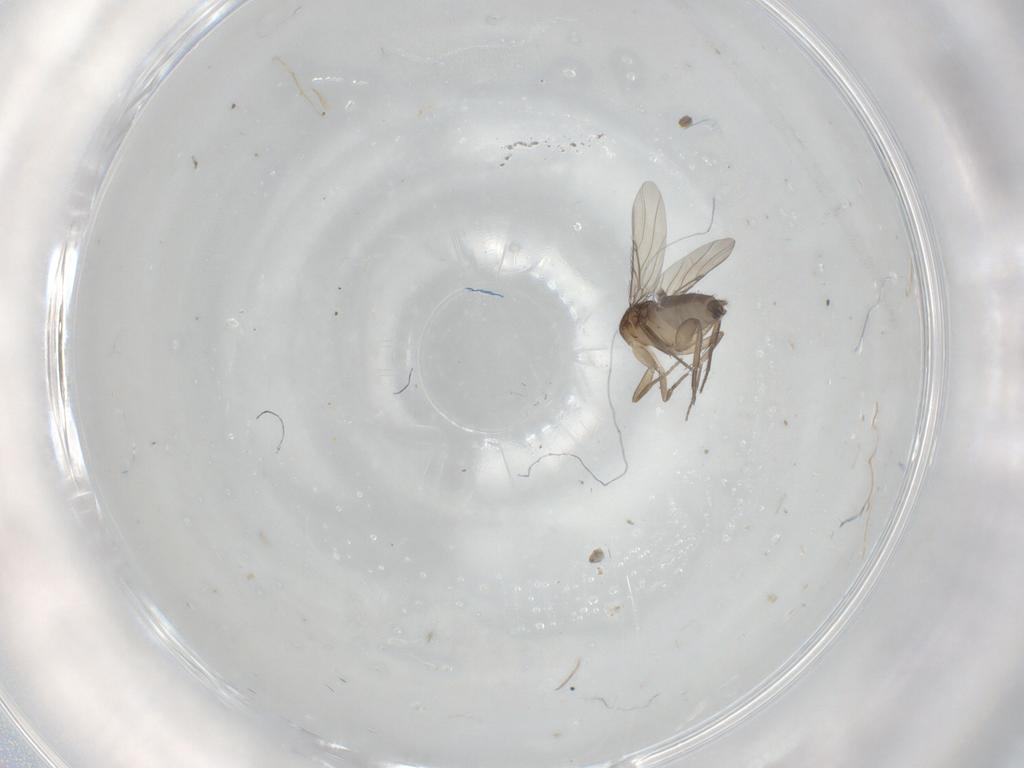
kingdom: Animalia
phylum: Arthropoda
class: Insecta
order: Diptera
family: Phoridae
